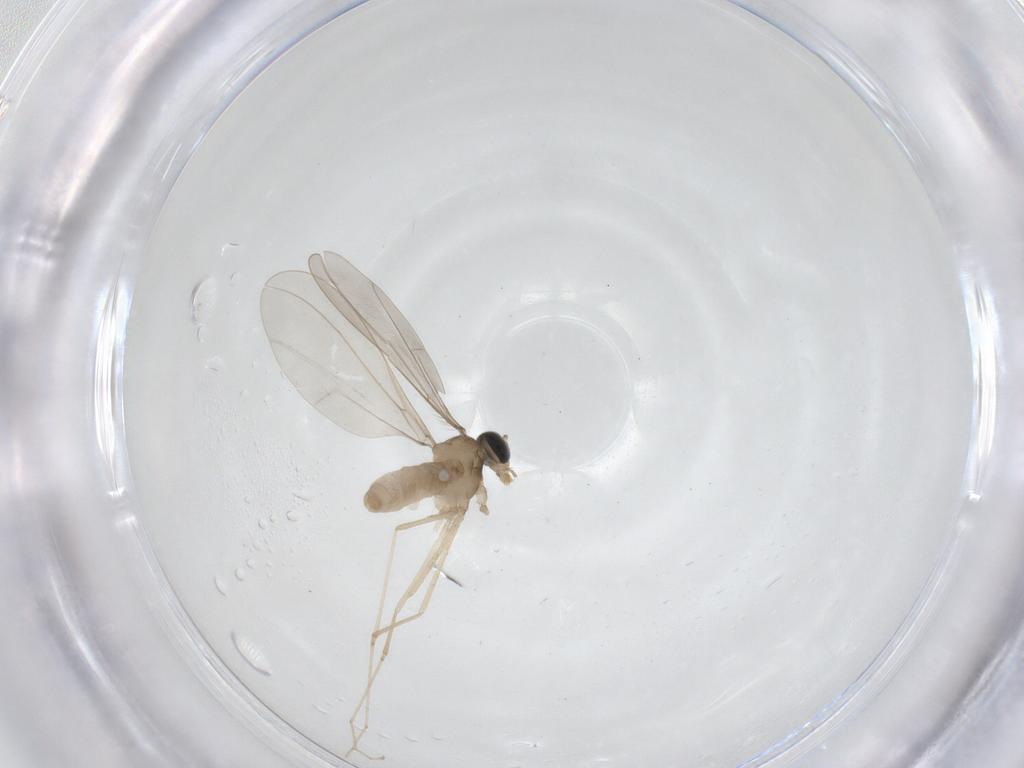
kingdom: Animalia
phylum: Arthropoda
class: Insecta
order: Diptera
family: Cecidomyiidae
